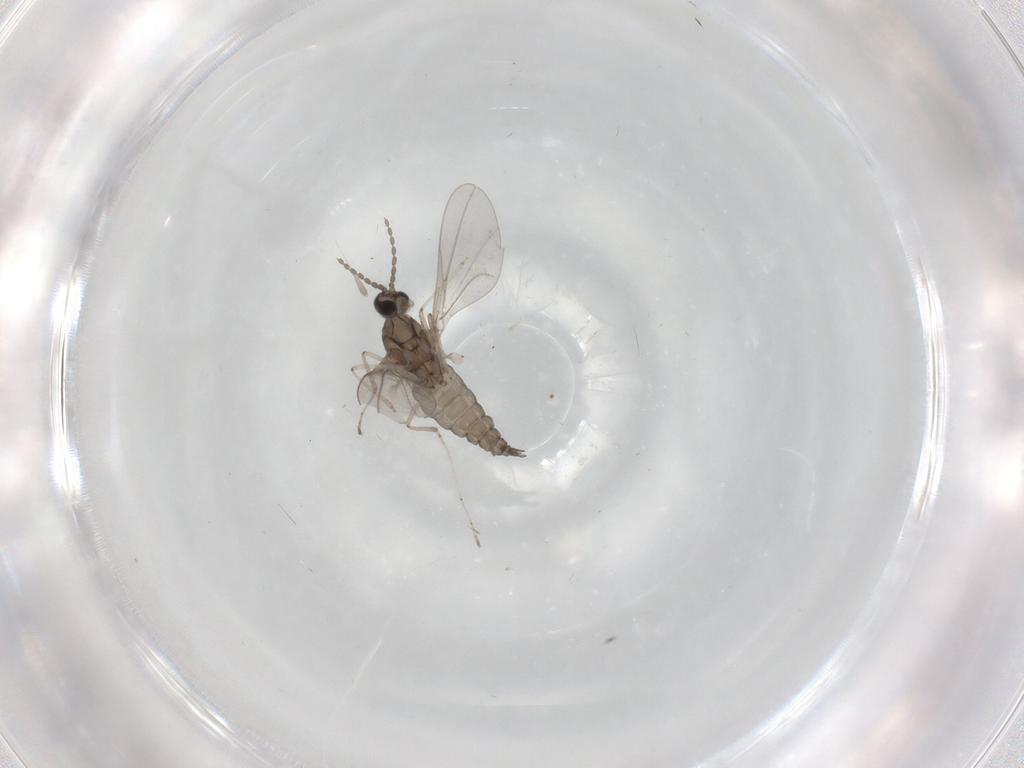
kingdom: Animalia
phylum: Arthropoda
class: Insecta
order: Diptera
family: Cecidomyiidae
